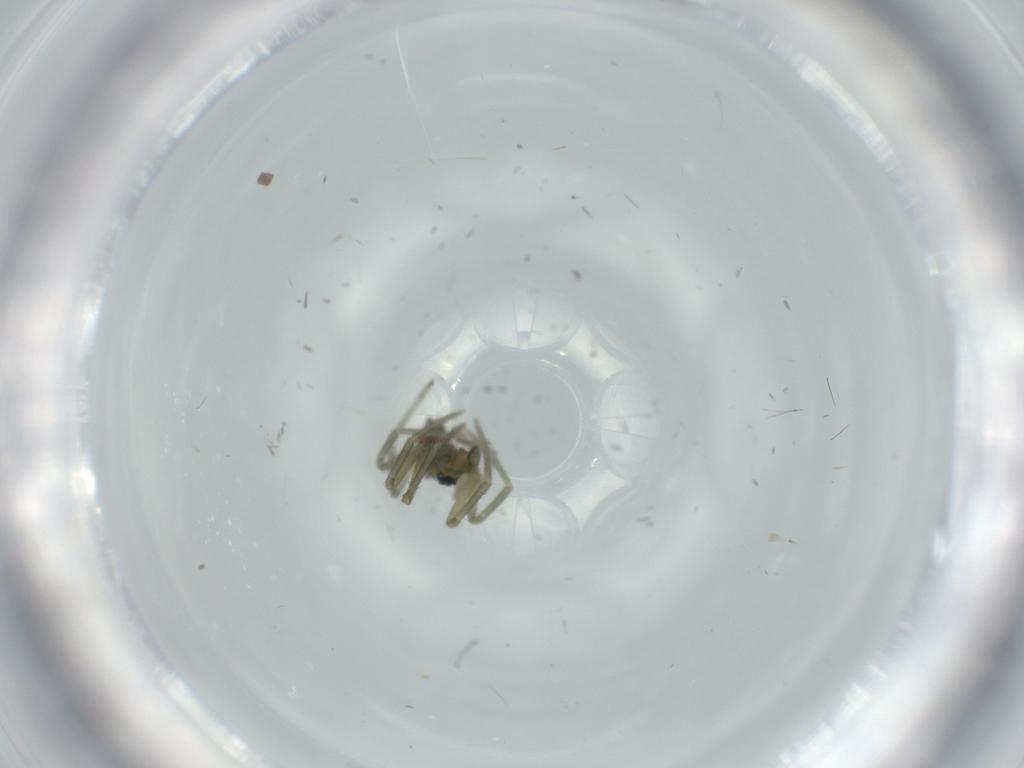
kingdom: Animalia
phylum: Arthropoda
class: Arachnida
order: Araneae
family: Linyphiidae
